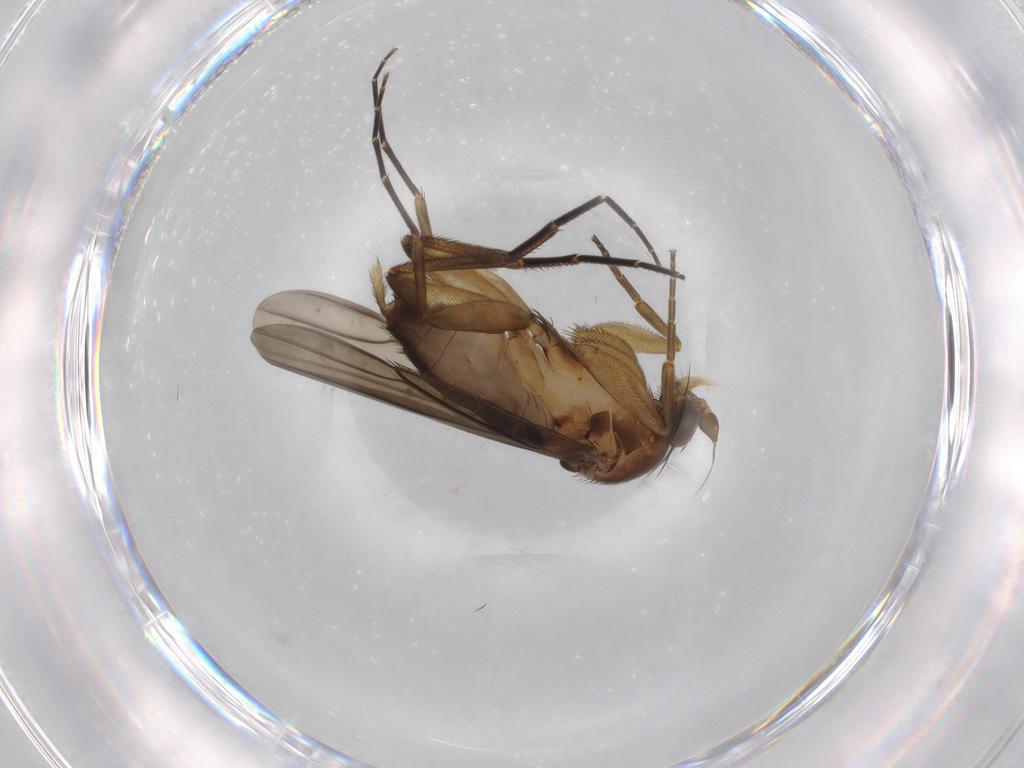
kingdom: Animalia
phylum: Arthropoda
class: Insecta
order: Diptera
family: Phoridae
